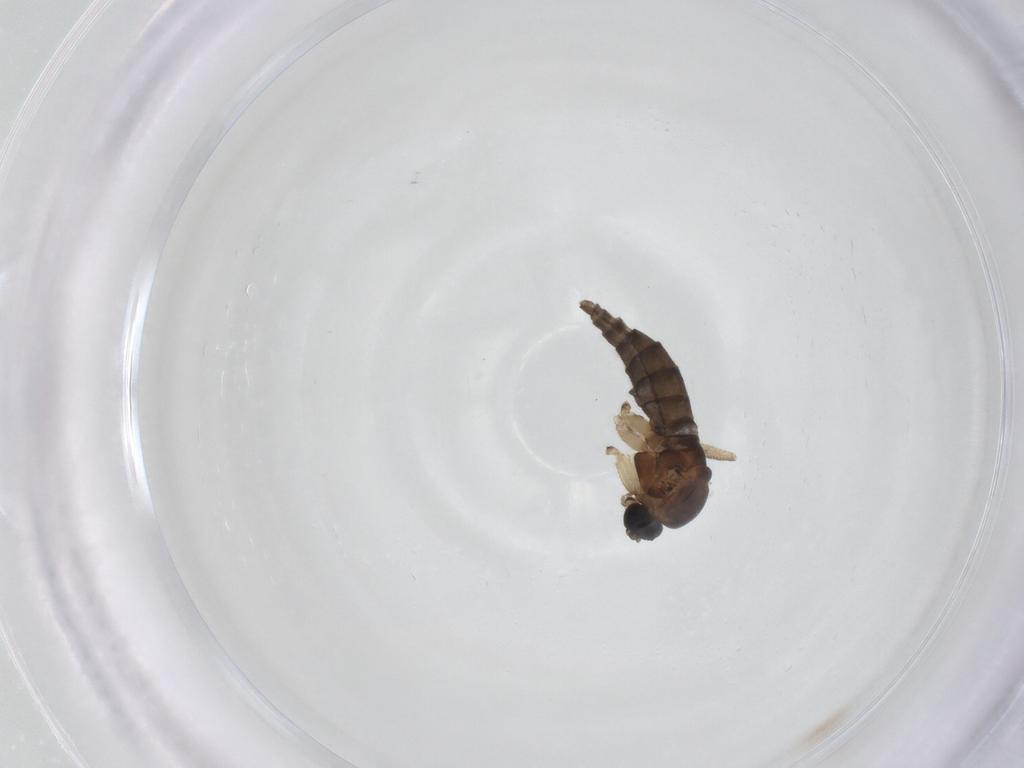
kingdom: Animalia
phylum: Arthropoda
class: Insecta
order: Diptera
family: Sciaridae
